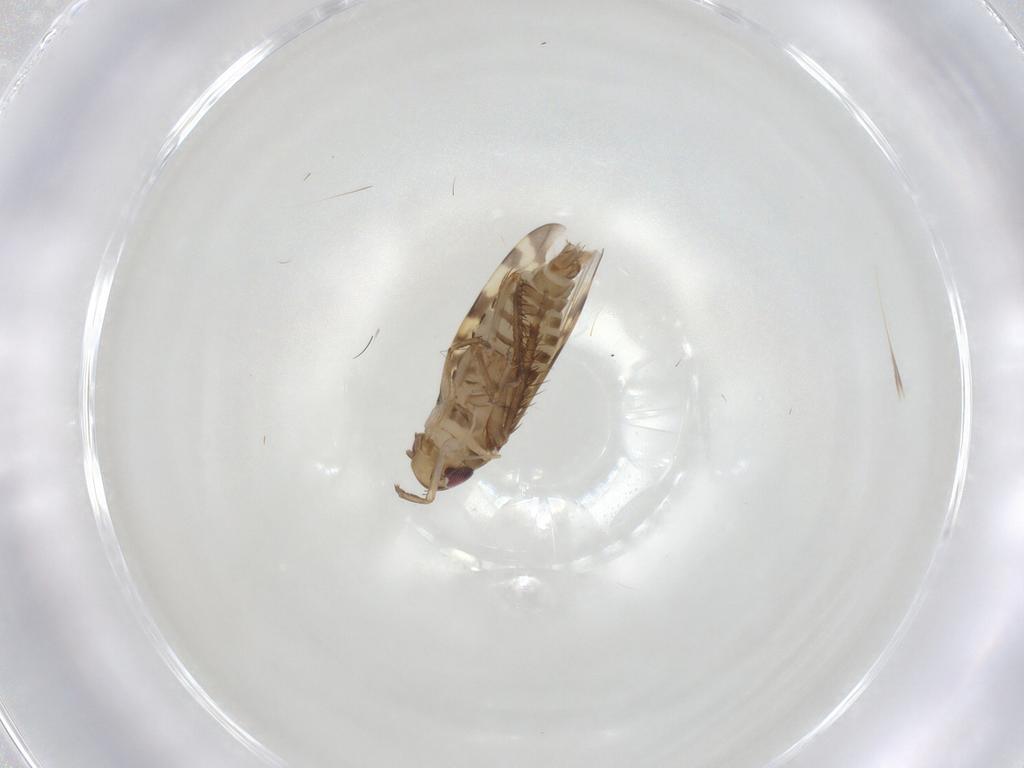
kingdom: Animalia
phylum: Arthropoda
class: Insecta
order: Hemiptera
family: Cicadellidae
